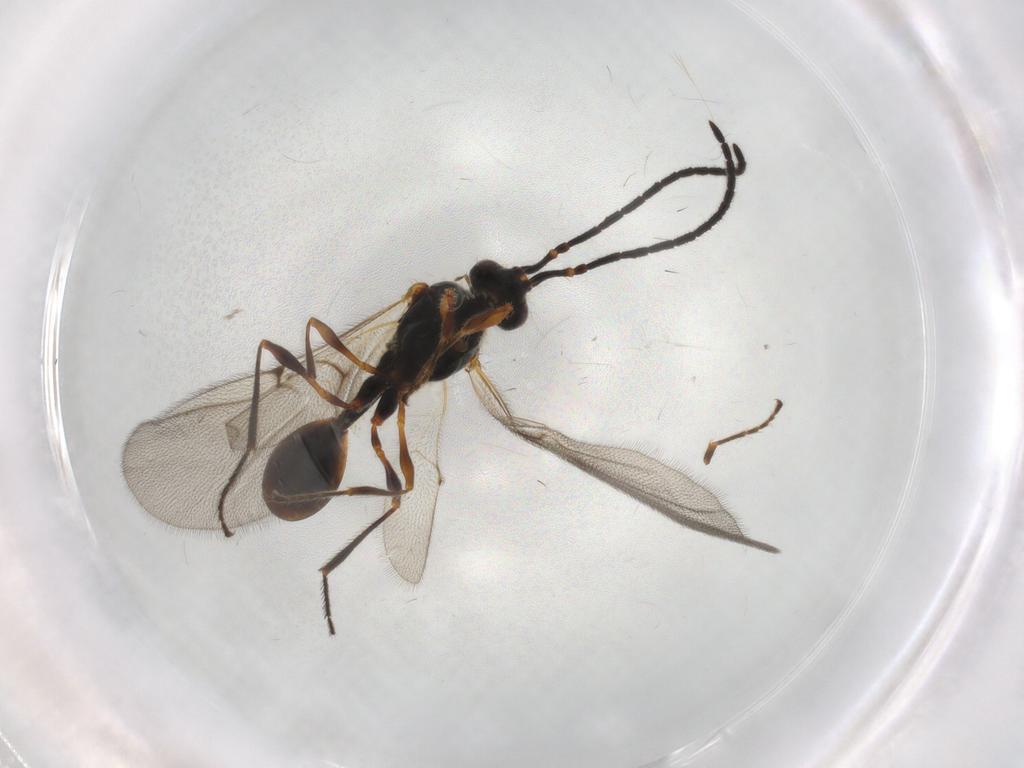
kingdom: Animalia
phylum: Arthropoda
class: Insecta
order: Hymenoptera
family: Diapriidae
